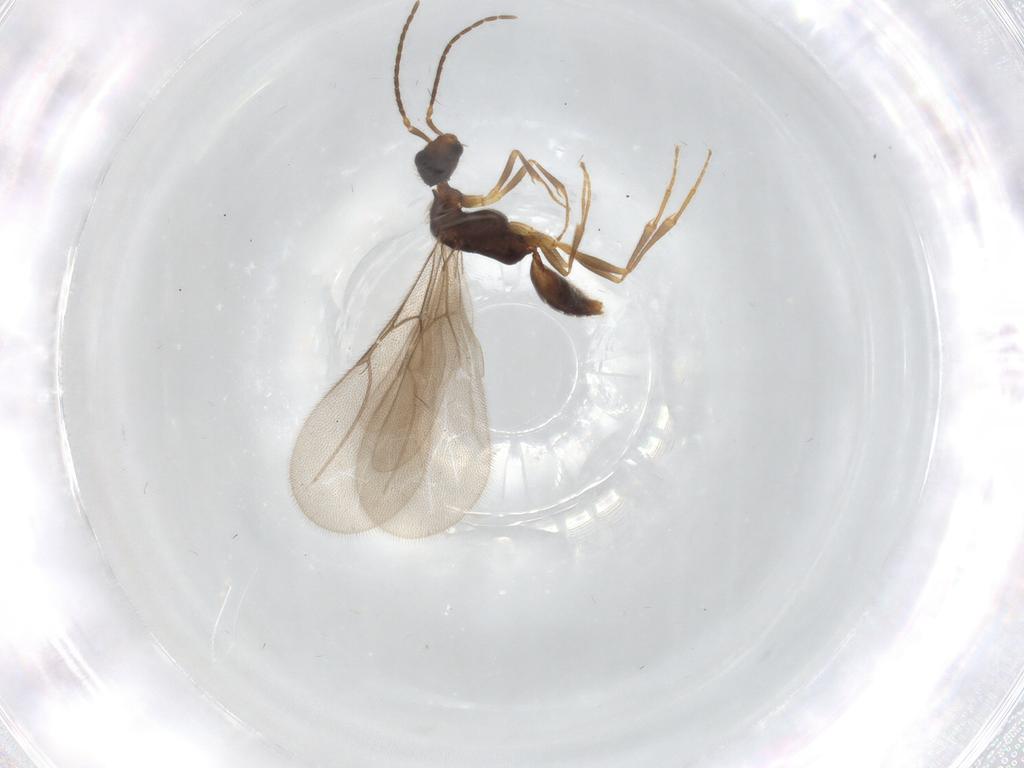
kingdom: Animalia
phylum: Arthropoda
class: Insecta
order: Hymenoptera
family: Bethylidae
